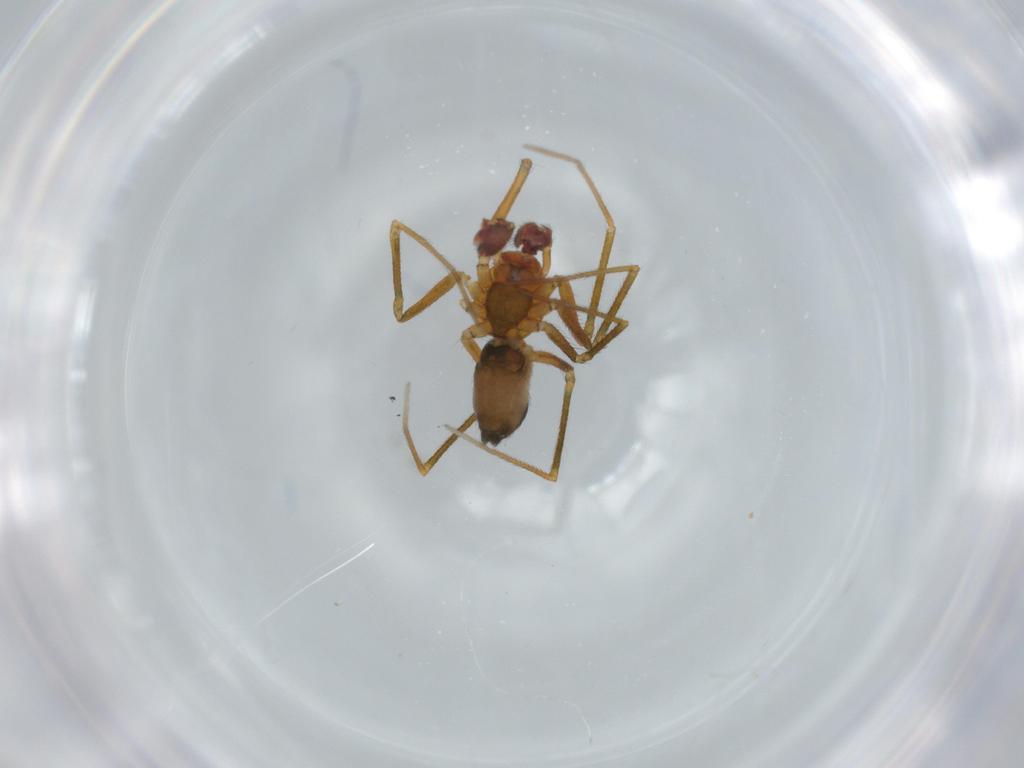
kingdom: Animalia
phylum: Arthropoda
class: Arachnida
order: Araneae
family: Linyphiidae
